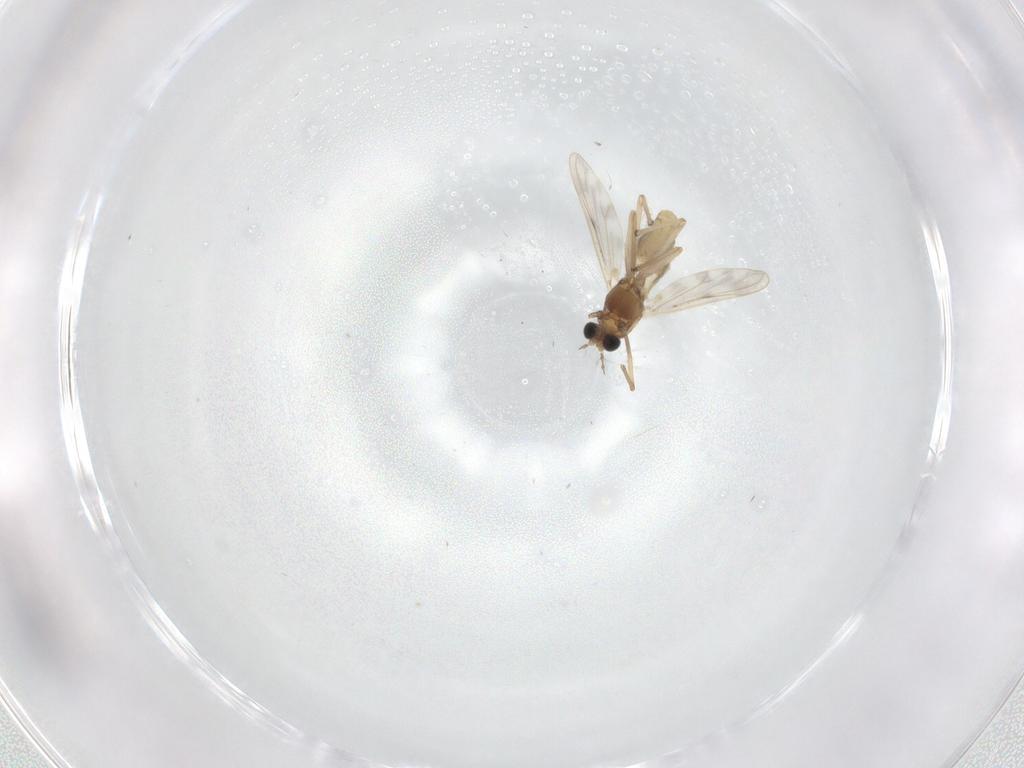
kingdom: Animalia
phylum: Arthropoda
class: Insecta
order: Diptera
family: Chironomidae
